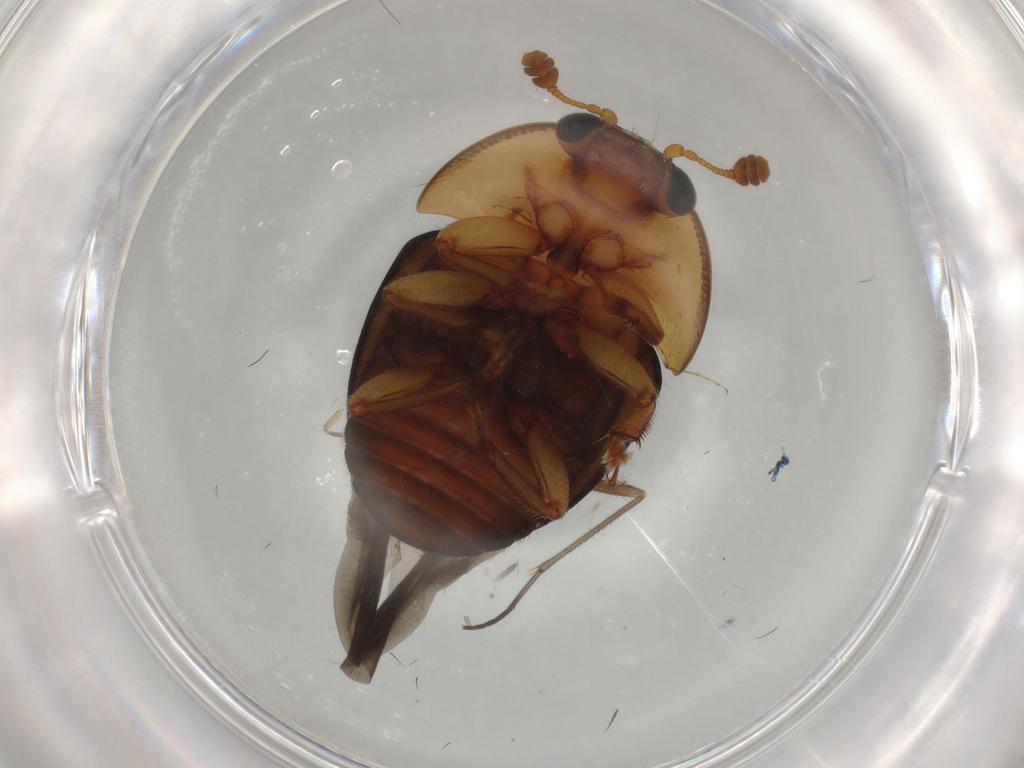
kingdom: Animalia
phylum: Arthropoda
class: Insecta
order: Coleoptera
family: Nitidulidae
